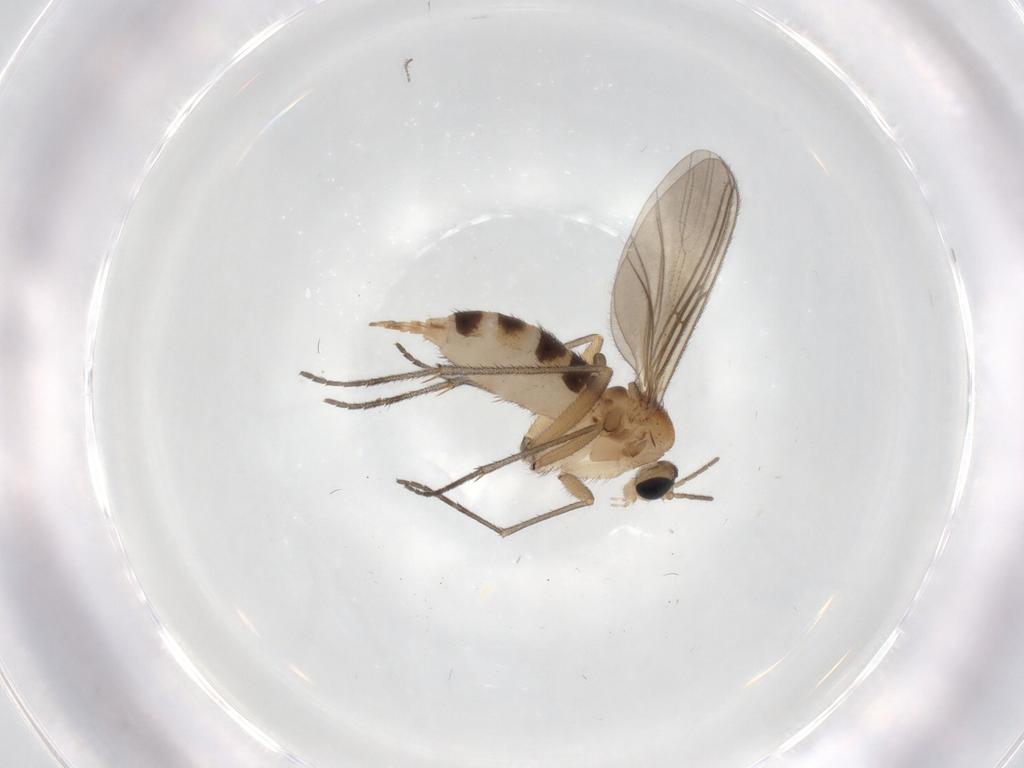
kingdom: Animalia
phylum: Arthropoda
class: Insecta
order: Diptera
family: Sciaridae
